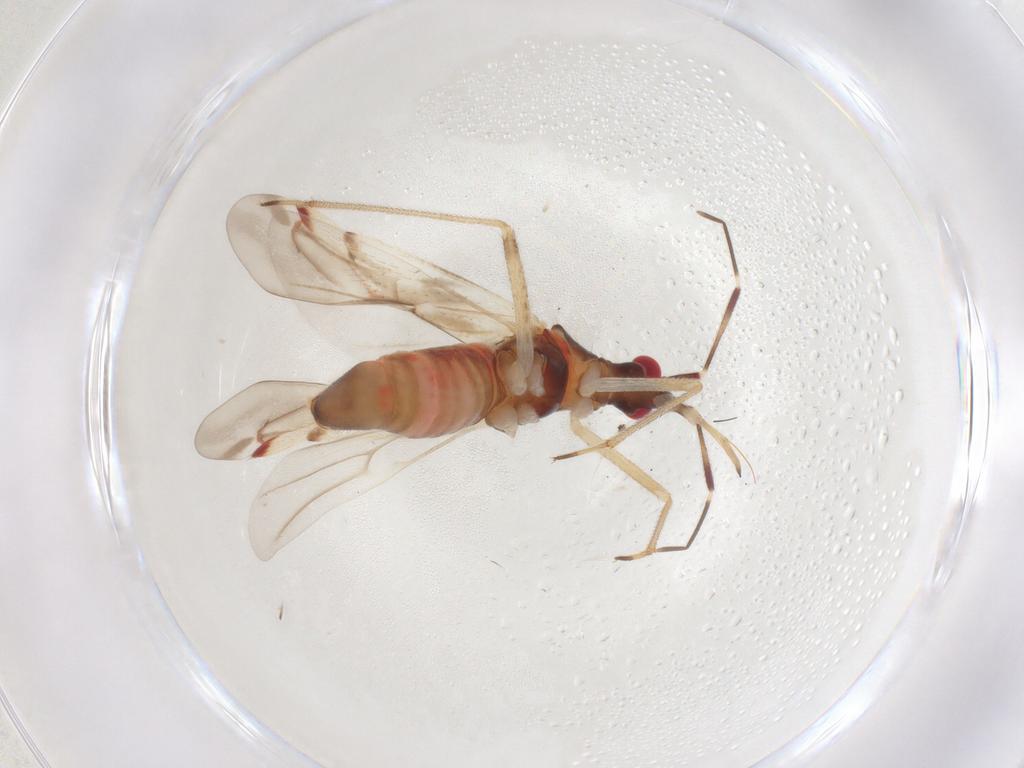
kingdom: Animalia
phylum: Arthropoda
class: Insecta
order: Hemiptera
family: Miridae
